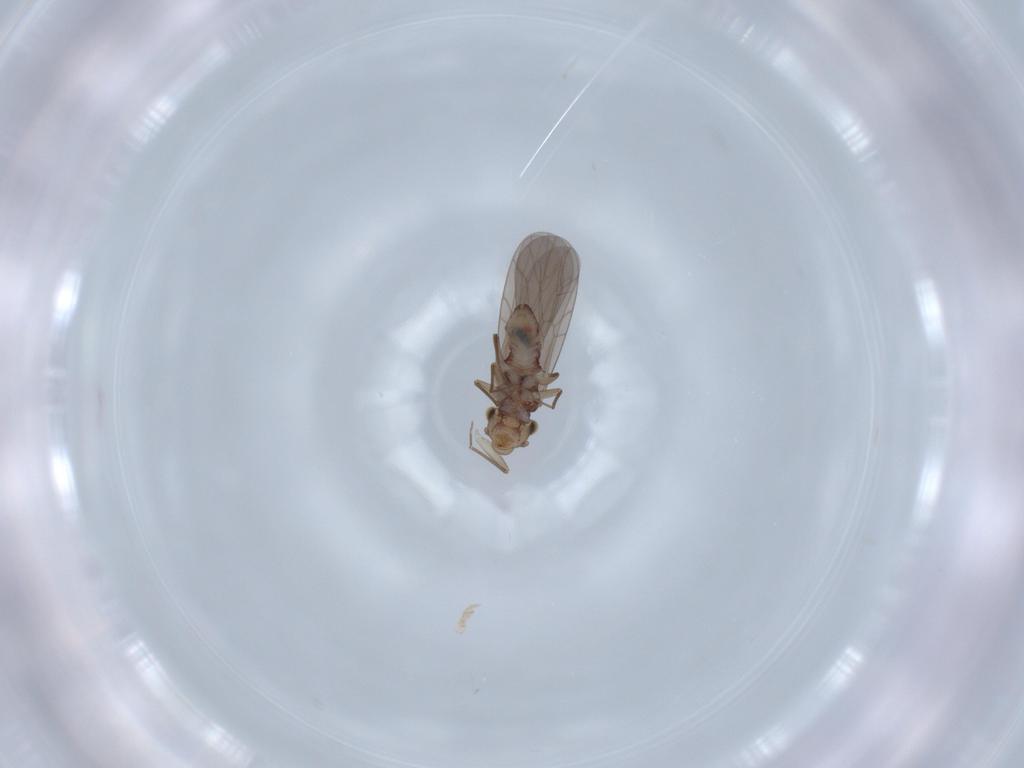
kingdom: Animalia
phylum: Arthropoda
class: Insecta
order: Psocodea
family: Lepidopsocidae
